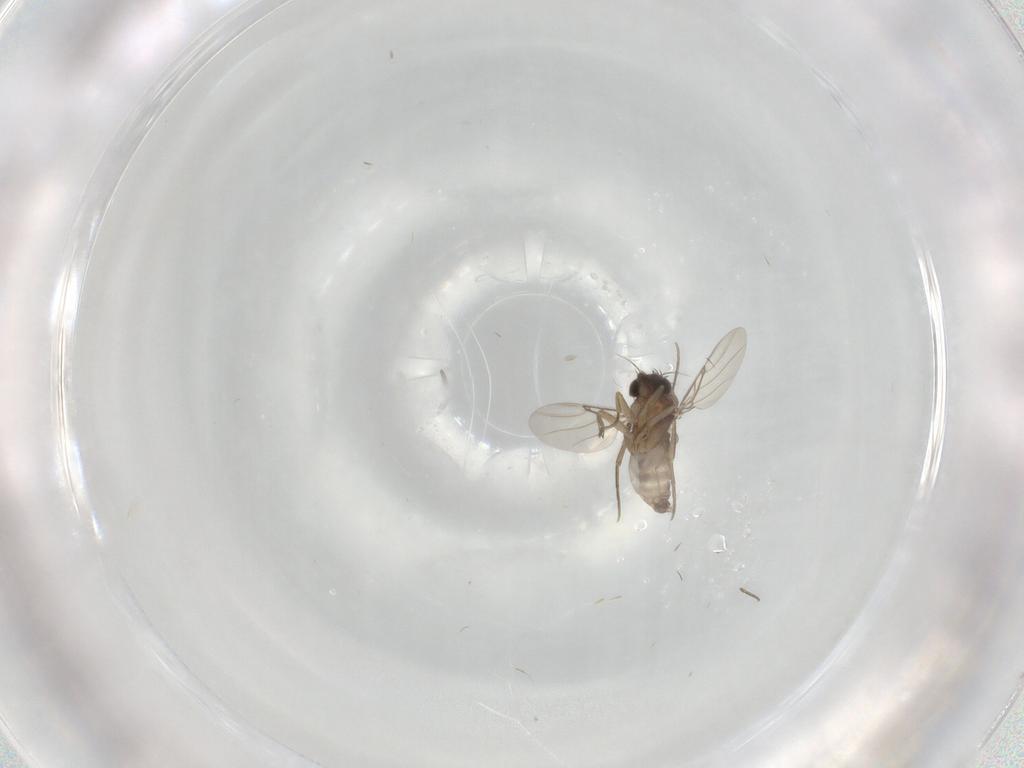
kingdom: Animalia
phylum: Arthropoda
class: Insecta
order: Diptera
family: Phoridae
